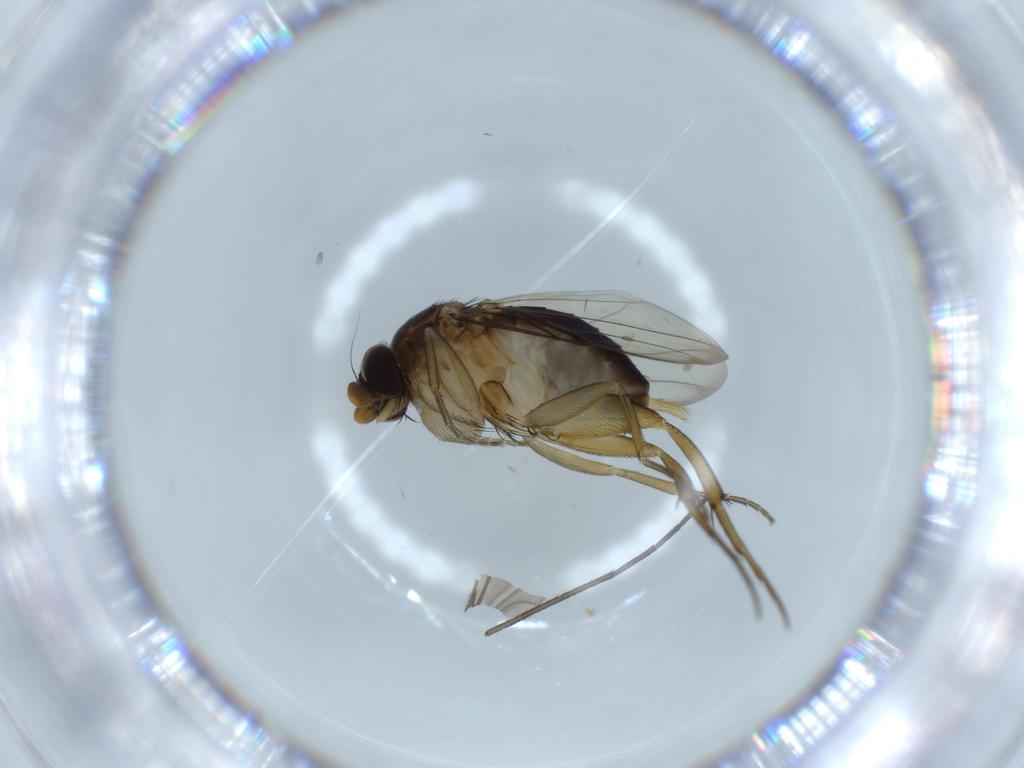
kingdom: Animalia
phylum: Arthropoda
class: Insecta
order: Diptera
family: Phoridae
